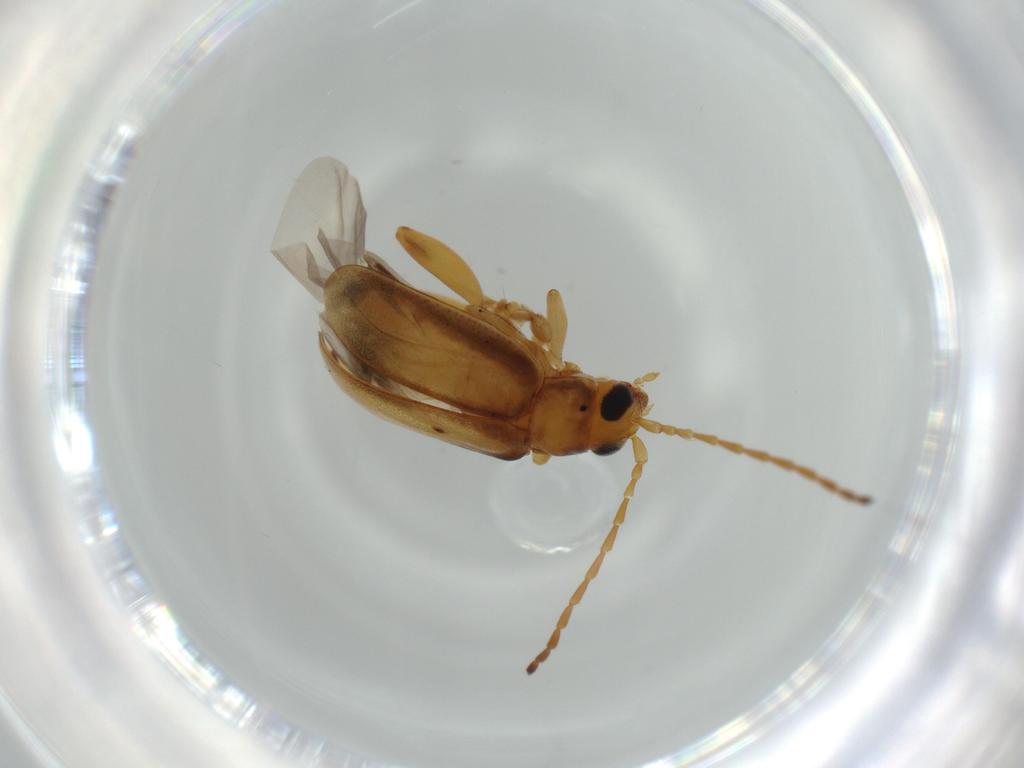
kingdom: Animalia
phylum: Arthropoda
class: Insecta
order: Coleoptera
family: Chrysomelidae
